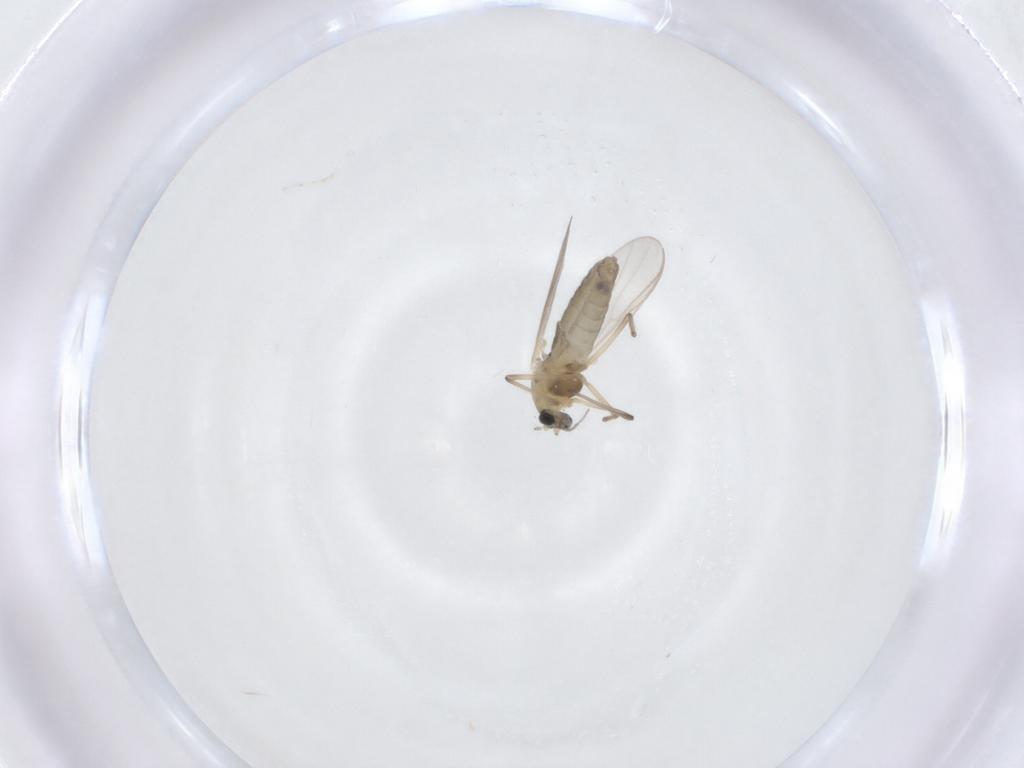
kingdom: Animalia
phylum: Arthropoda
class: Insecta
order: Diptera
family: Chironomidae
